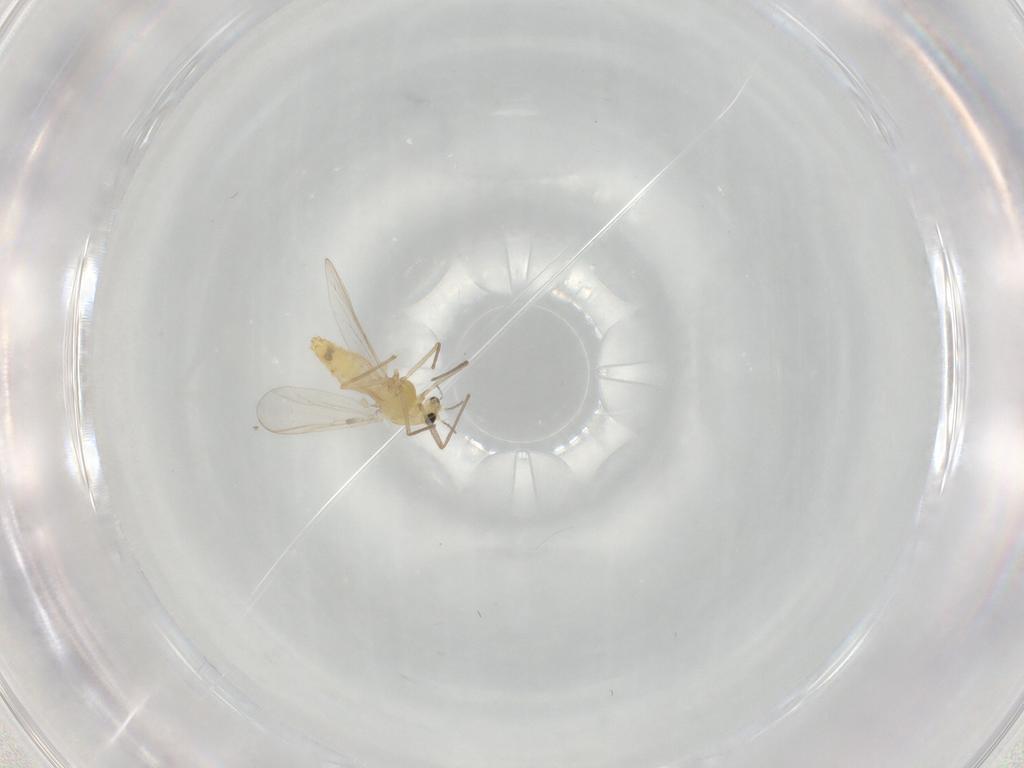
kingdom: Animalia
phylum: Arthropoda
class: Insecta
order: Diptera
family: Chironomidae
